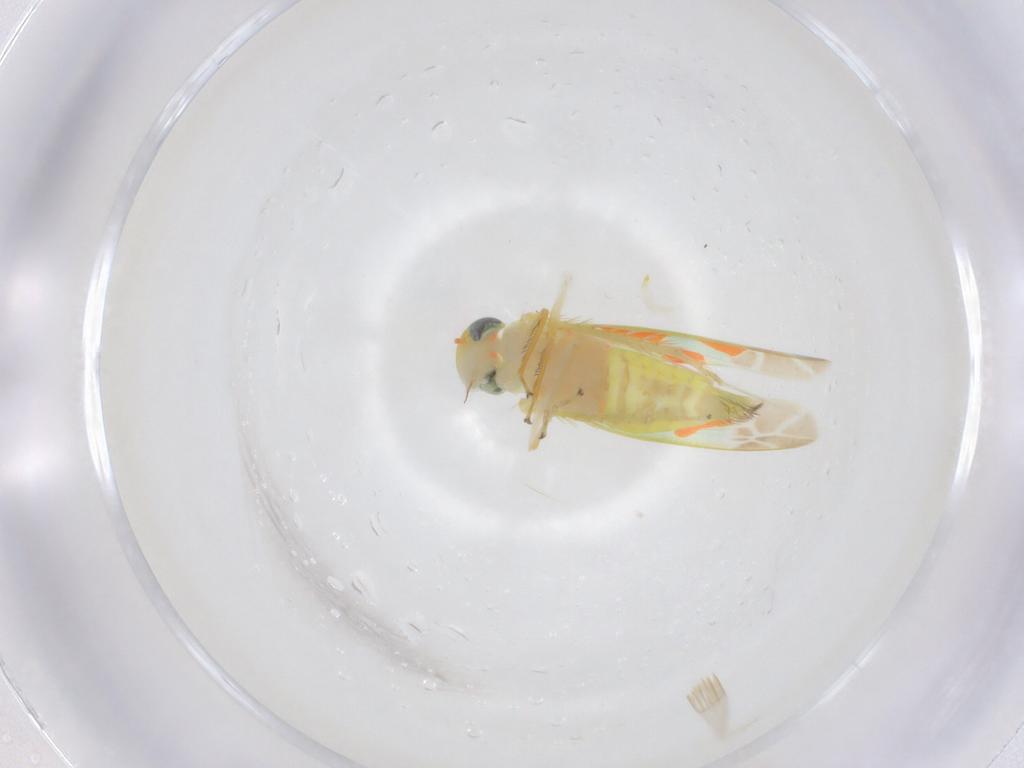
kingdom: Animalia
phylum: Arthropoda
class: Insecta
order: Hemiptera
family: Cicadellidae
